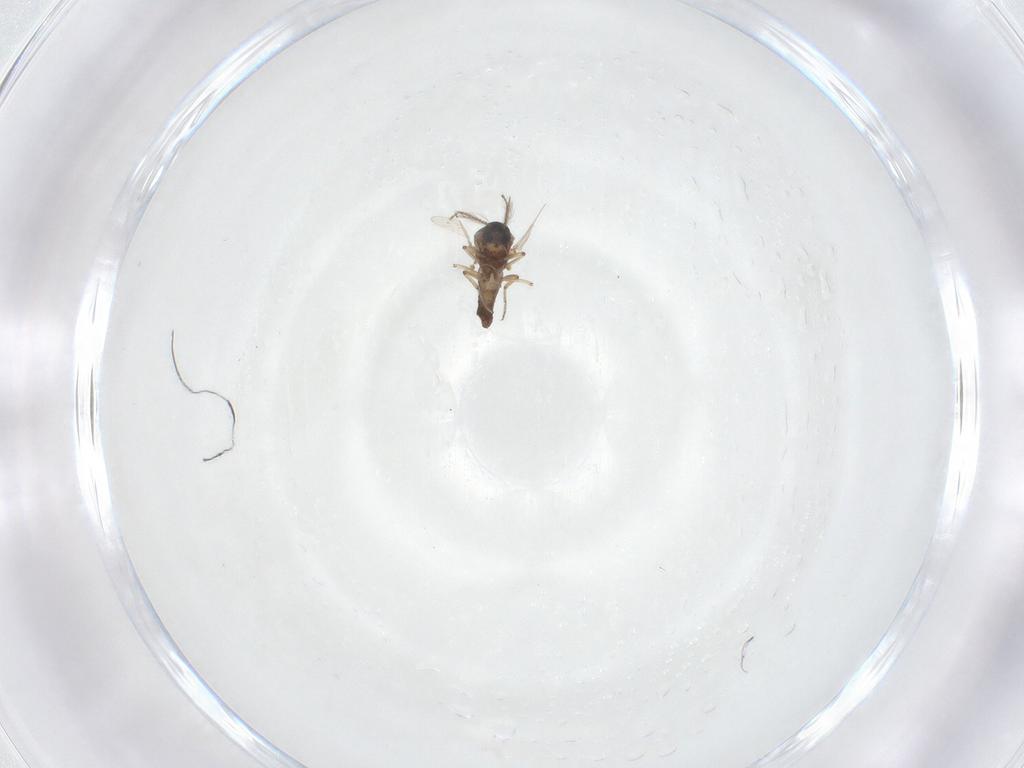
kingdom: Animalia
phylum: Arthropoda
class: Insecta
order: Diptera
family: Ceratopogonidae
